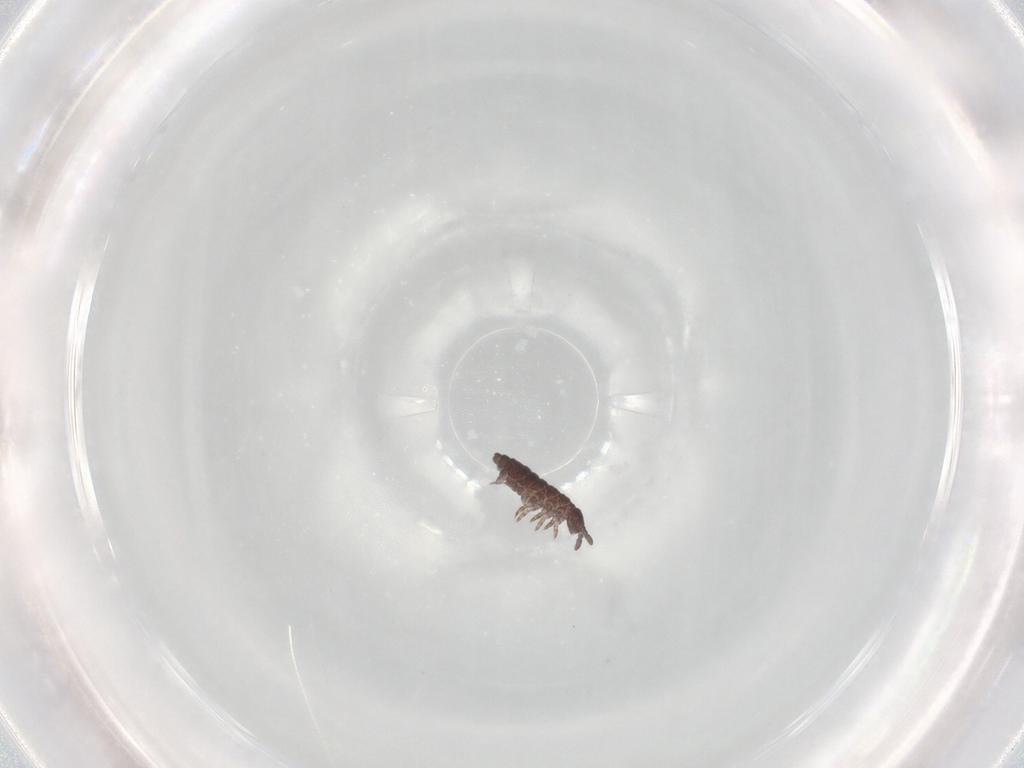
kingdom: Animalia
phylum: Arthropoda
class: Collembola
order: Poduromorpha
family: Hypogastruridae
